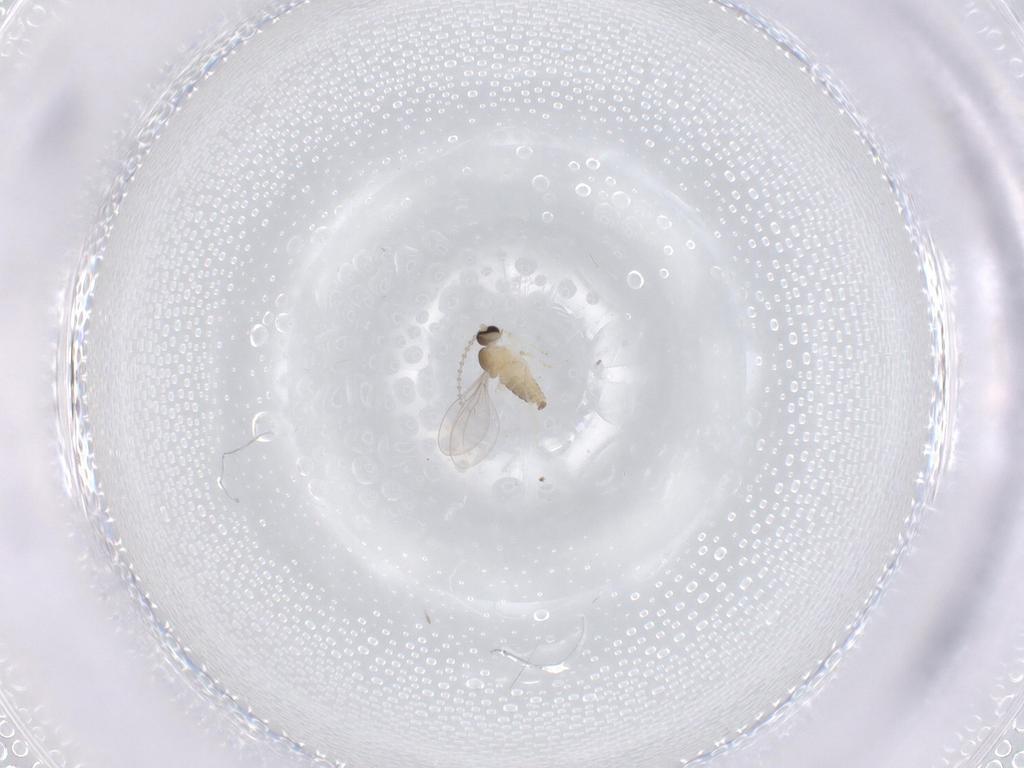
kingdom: Animalia
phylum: Arthropoda
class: Insecta
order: Diptera
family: Cecidomyiidae
